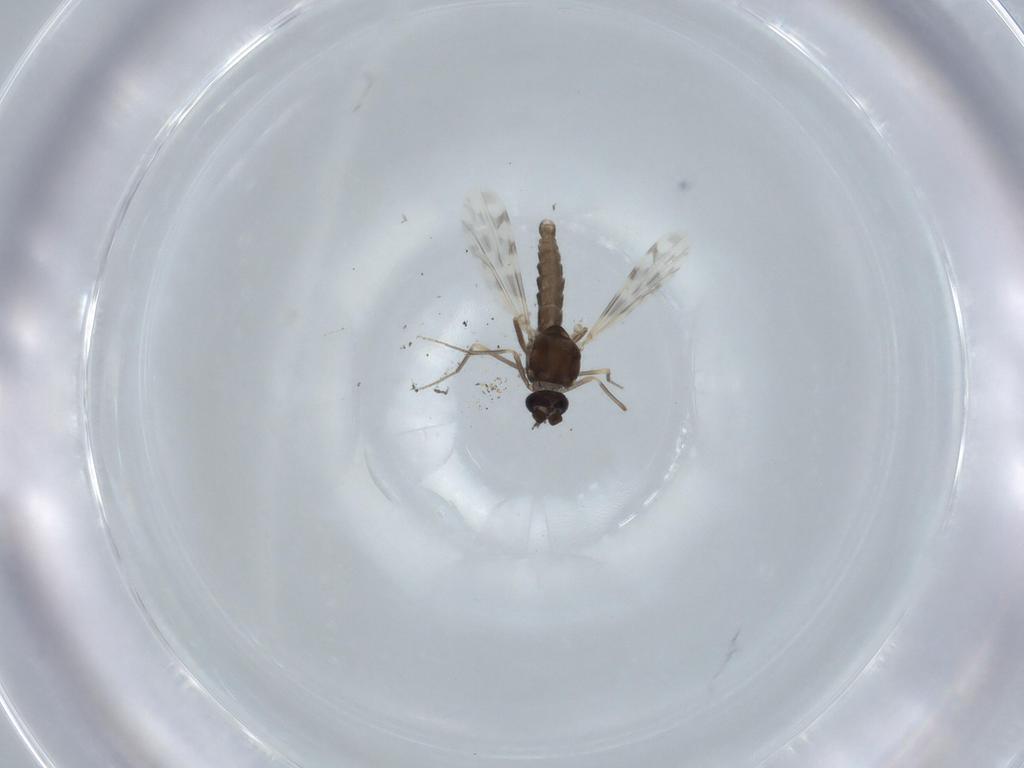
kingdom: Animalia
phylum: Arthropoda
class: Insecta
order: Diptera
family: Ceratopogonidae
